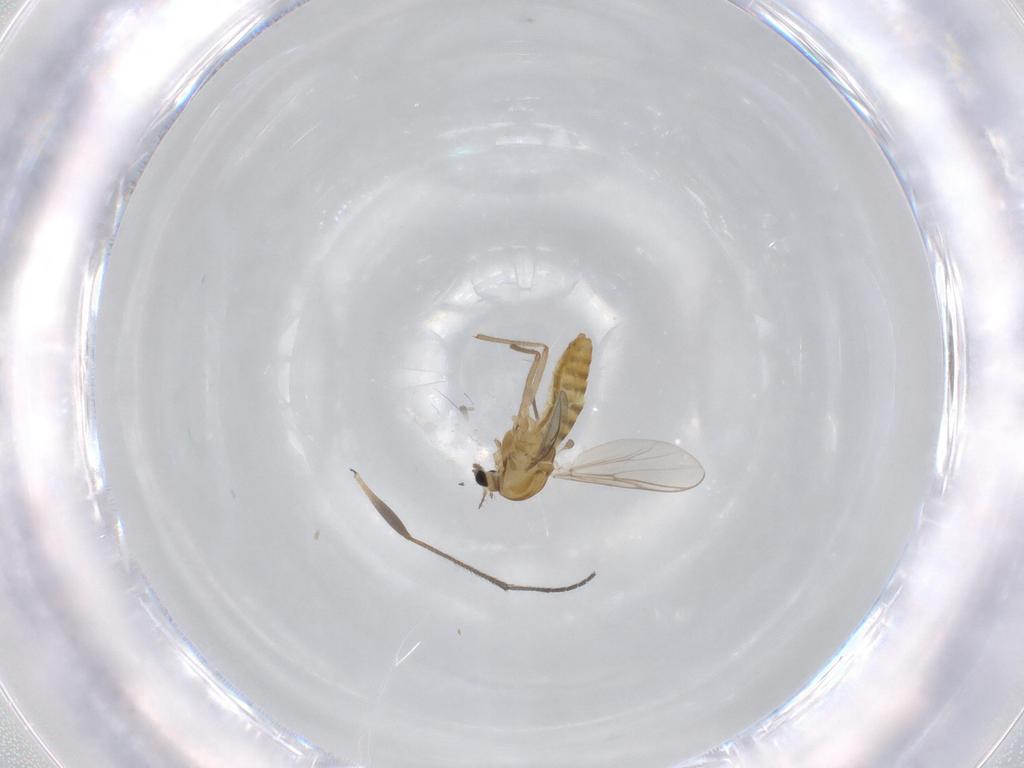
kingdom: Animalia
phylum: Arthropoda
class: Insecta
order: Diptera
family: Chironomidae
